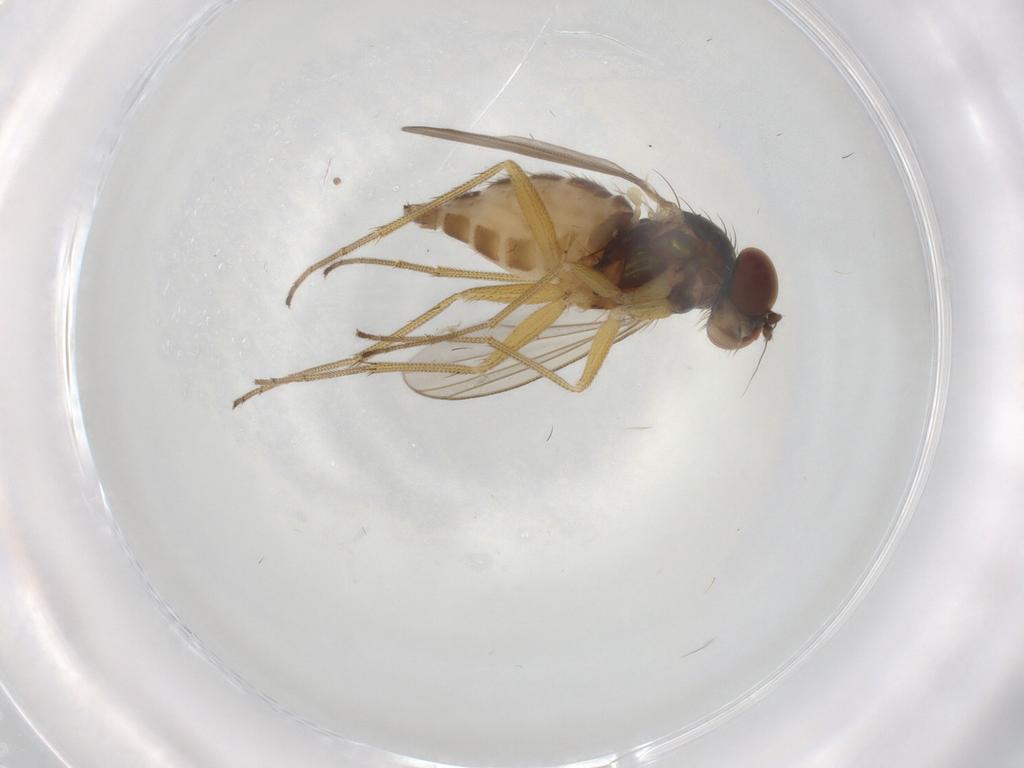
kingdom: Animalia
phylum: Arthropoda
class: Insecta
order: Diptera
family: Dolichopodidae
